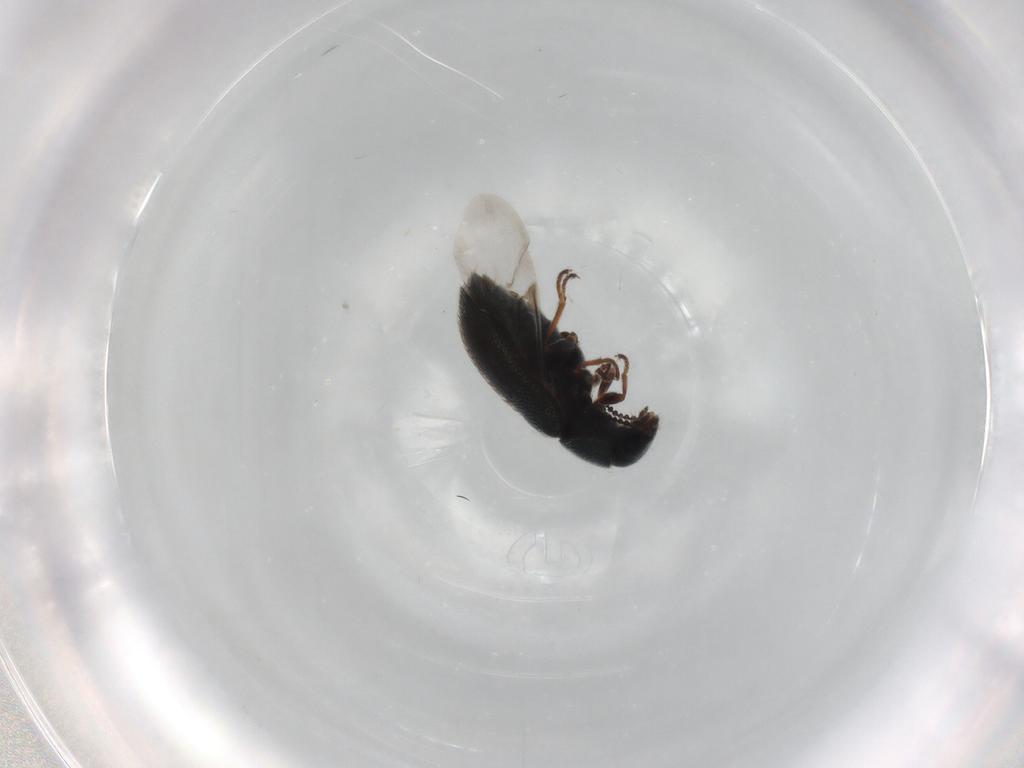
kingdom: Animalia
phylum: Arthropoda
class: Insecta
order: Coleoptera
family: Melyridae
